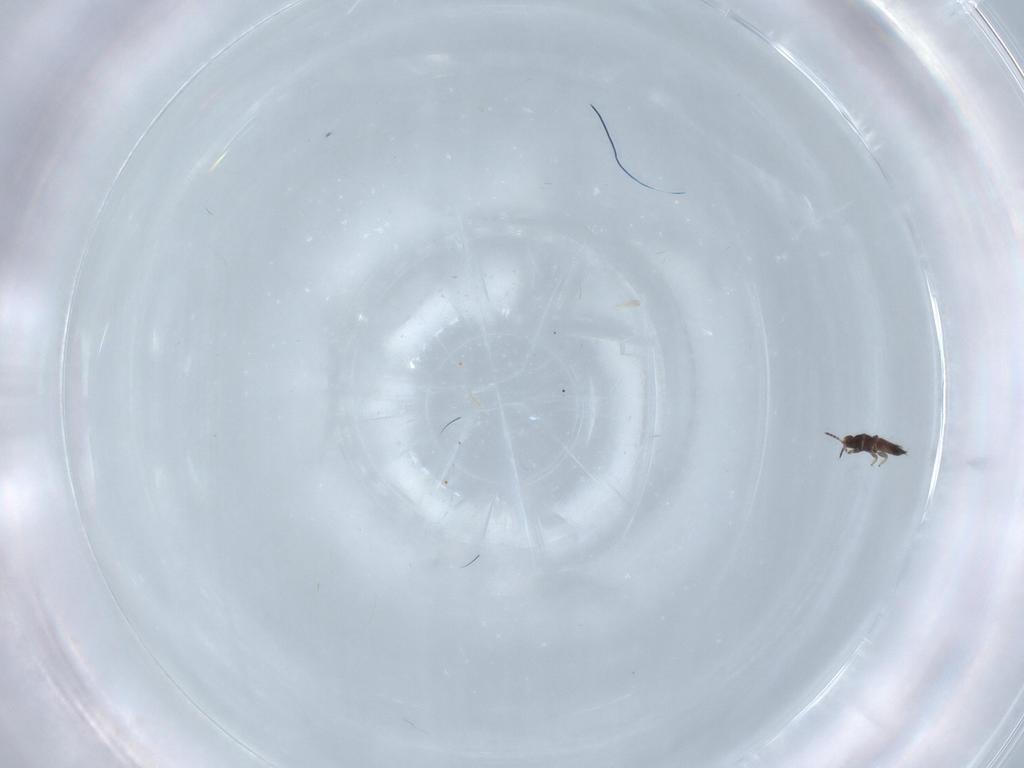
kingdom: Animalia
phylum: Arthropoda
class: Insecta
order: Thysanoptera
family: Phlaeothripidae
